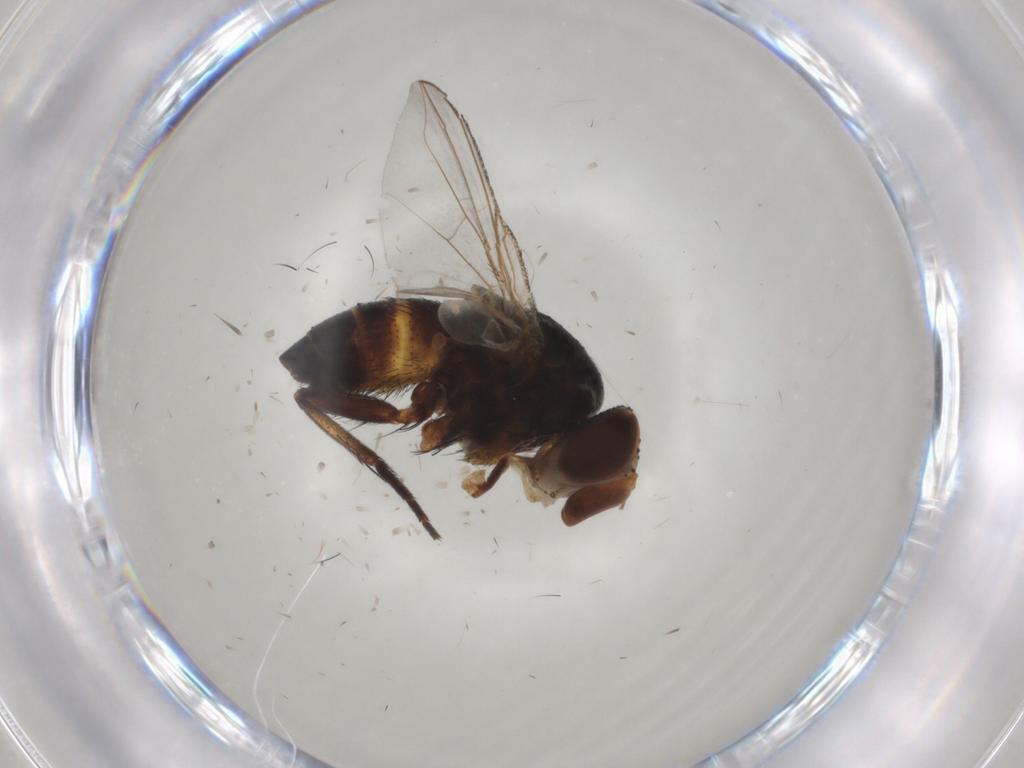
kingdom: Animalia
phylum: Arthropoda
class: Insecta
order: Diptera
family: Glossinidae
